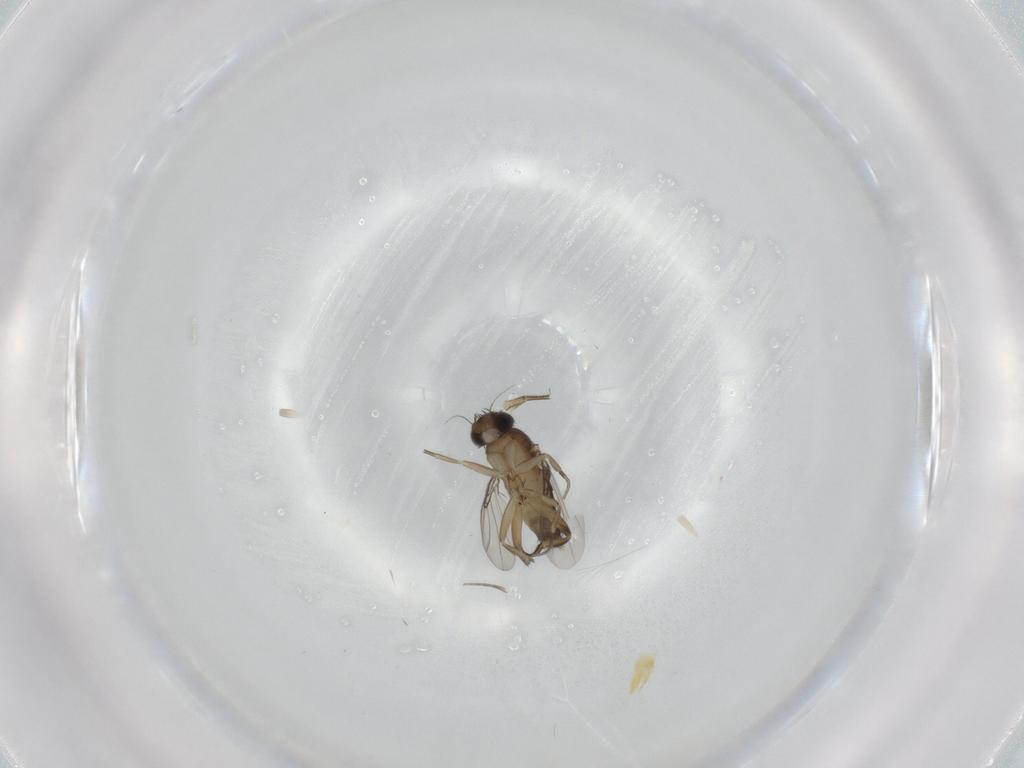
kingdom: Animalia
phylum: Arthropoda
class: Insecta
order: Diptera
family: Phoridae
